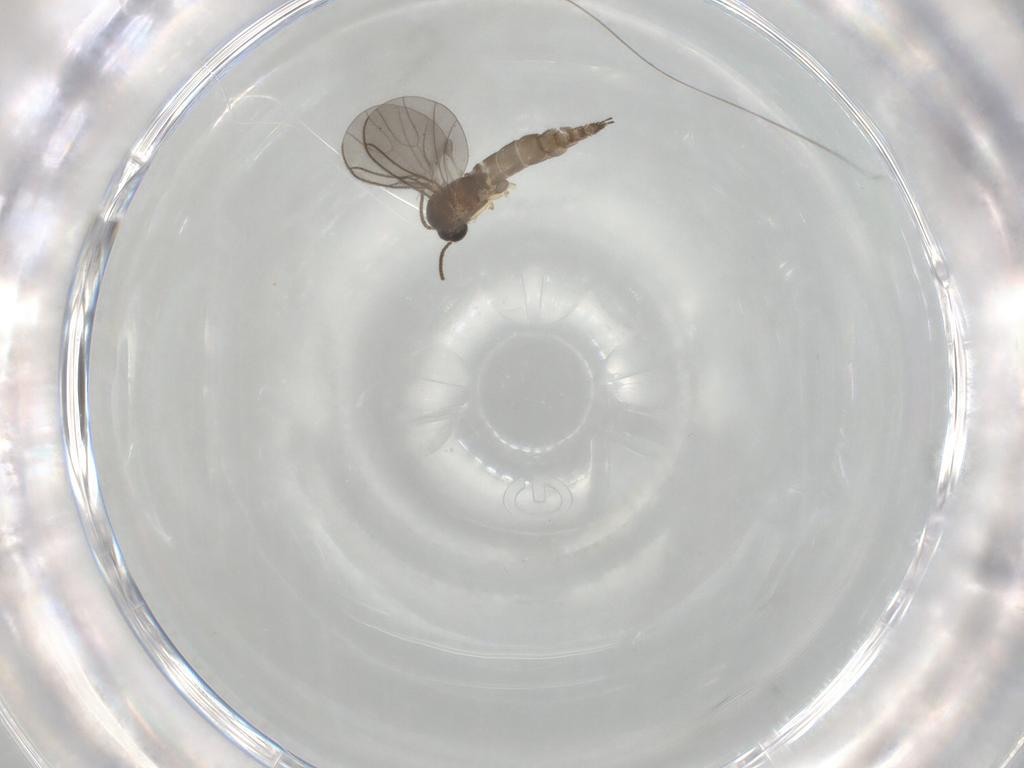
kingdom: Animalia
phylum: Arthropoda
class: Insecta
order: Diptera
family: Sciaridae
